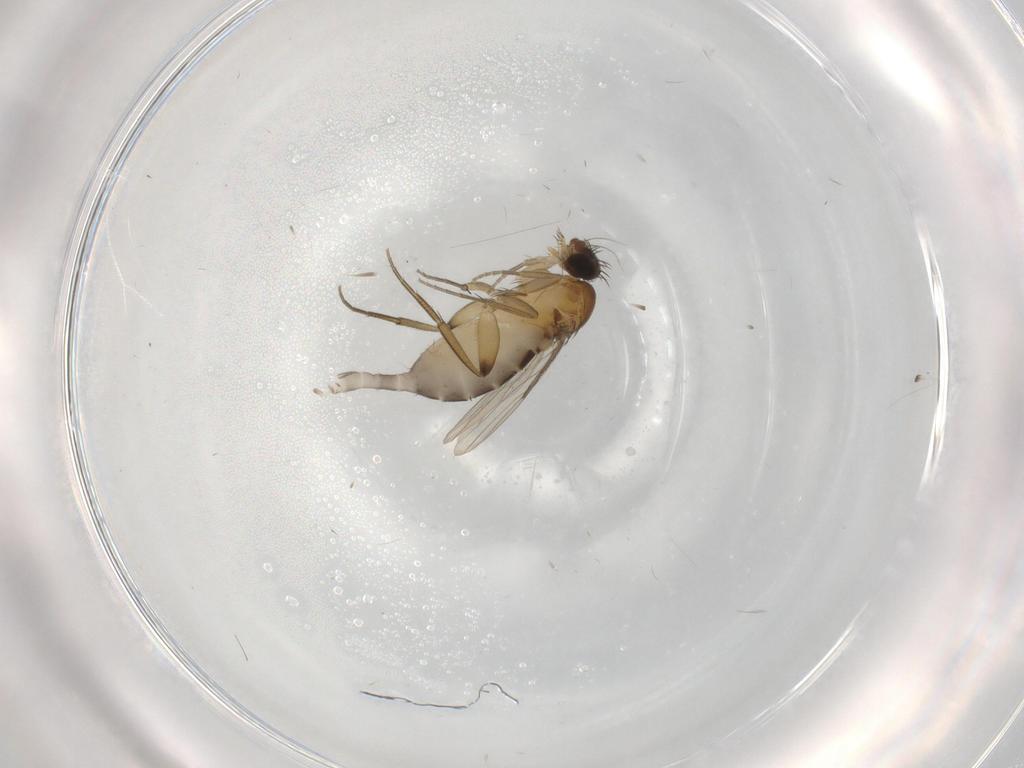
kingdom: Animalia
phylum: Arthropoda
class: Insecta
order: Diptera
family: Phoridae
